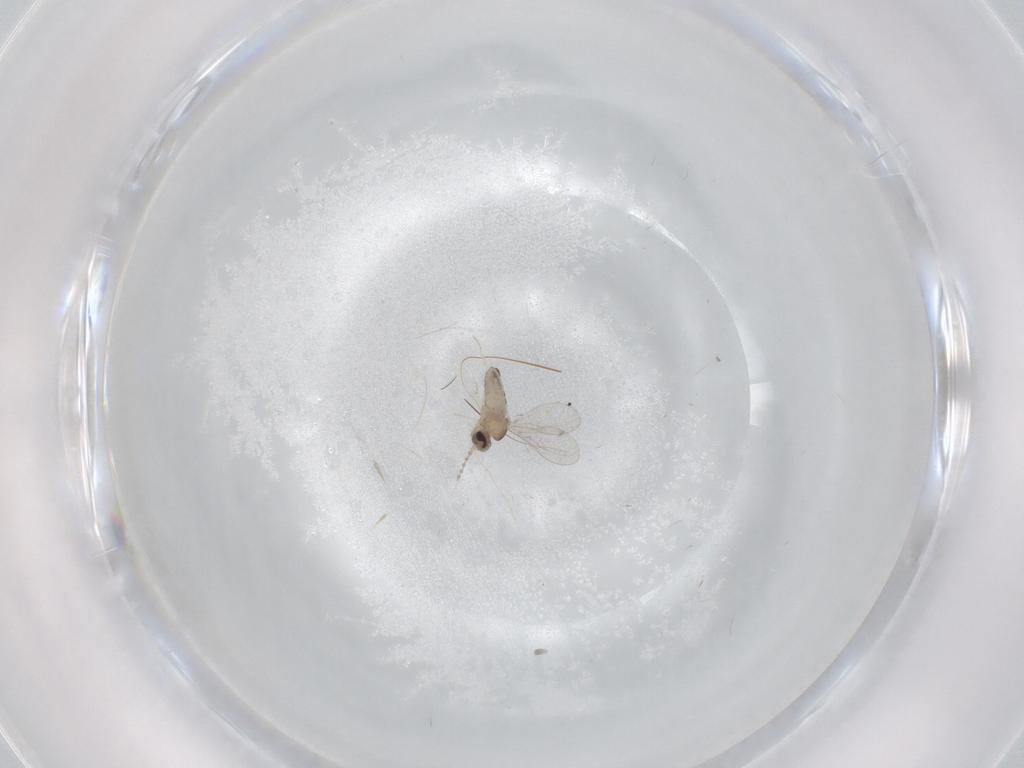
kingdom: Animalia
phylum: Arthropoda
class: Insecta
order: Diptera
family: Cecidomyiidae
